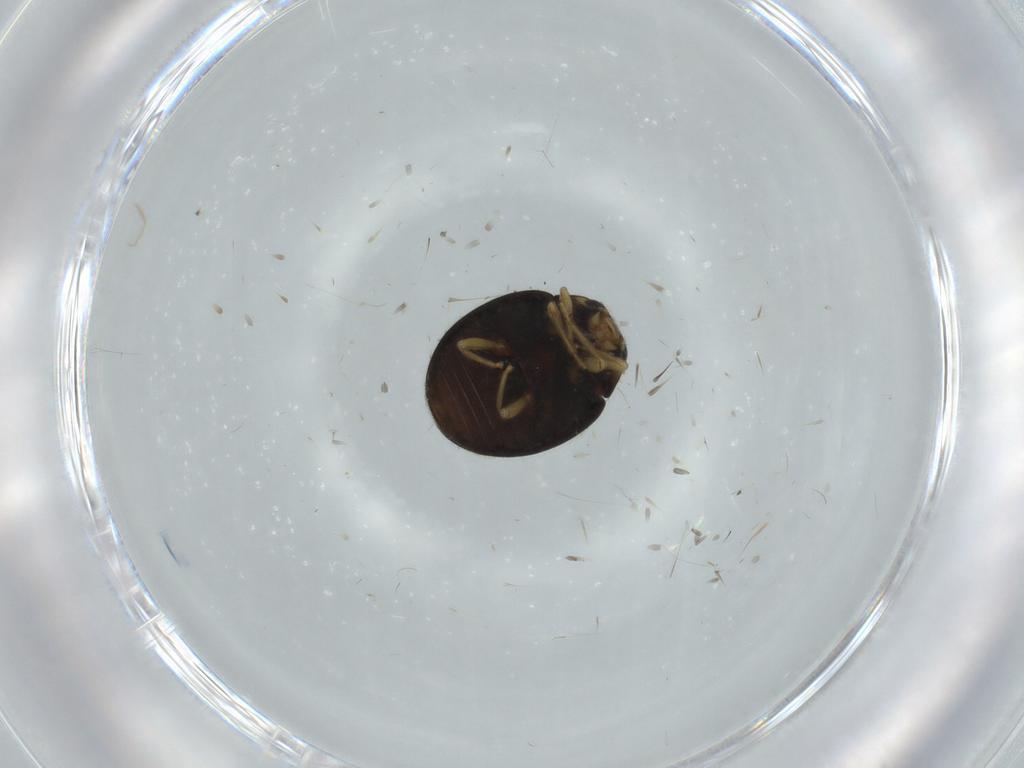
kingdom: Animalia
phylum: Arthropoda
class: Insecta
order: Coleoptera
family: Coccinellidae
